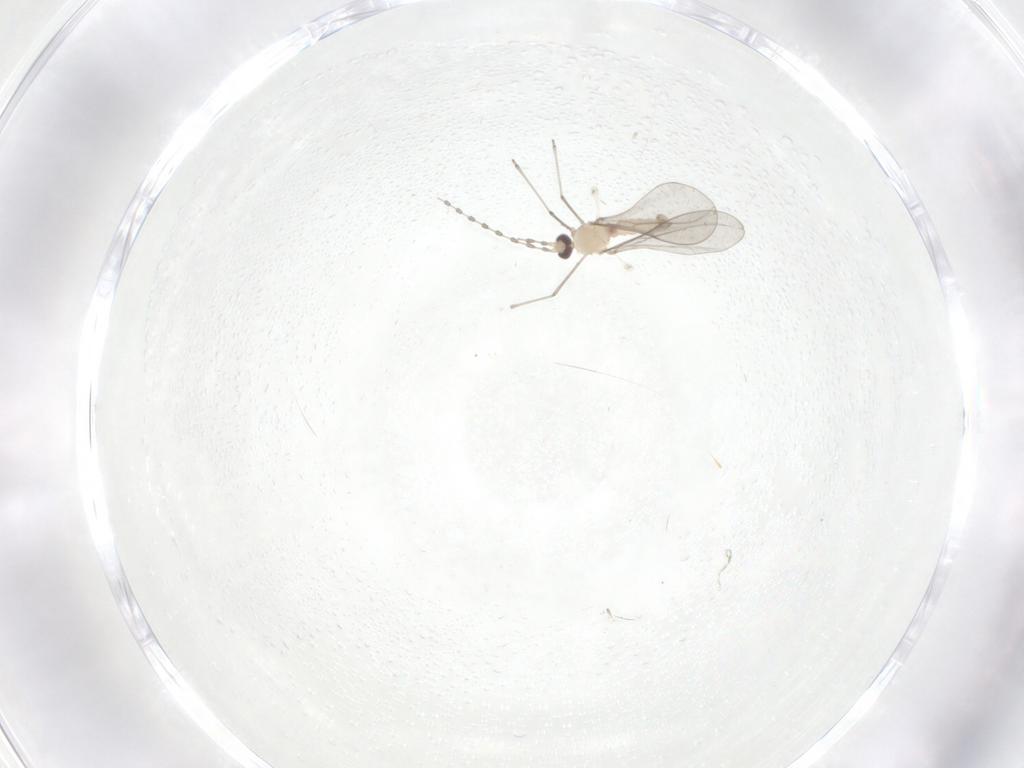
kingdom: Animalia
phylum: Arthropoda
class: Insecta
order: Diptera
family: Cecidomyiidae
